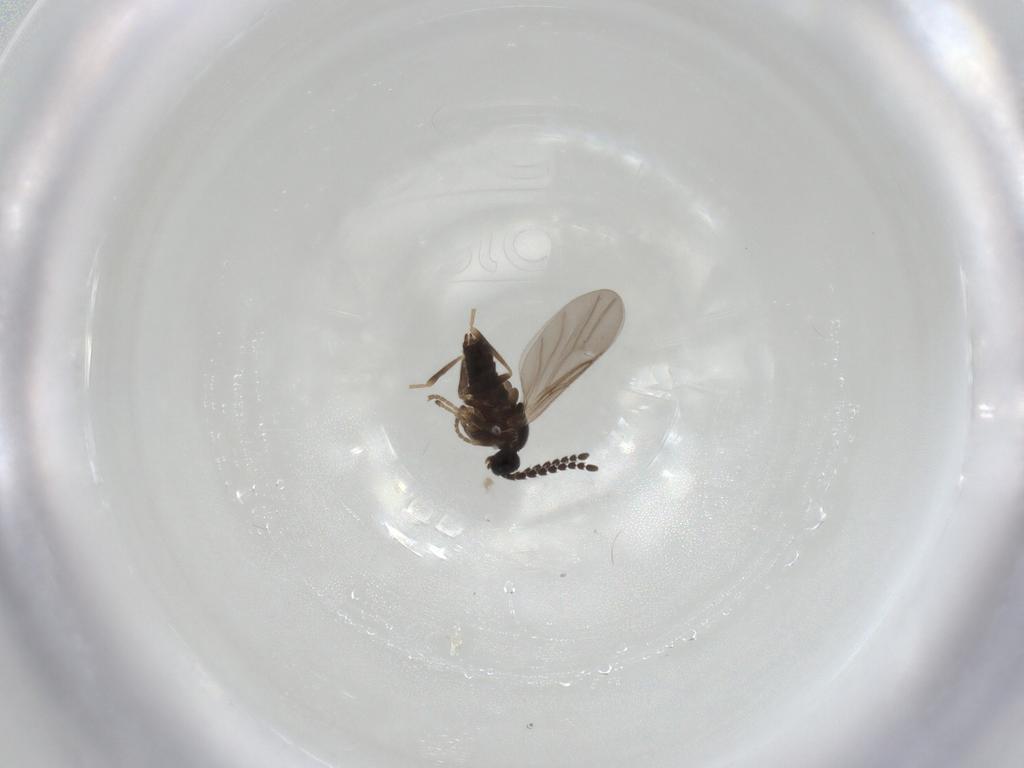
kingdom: Animalia
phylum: Arthropoda
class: Insecta
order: Diptera
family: Scatopsidae
